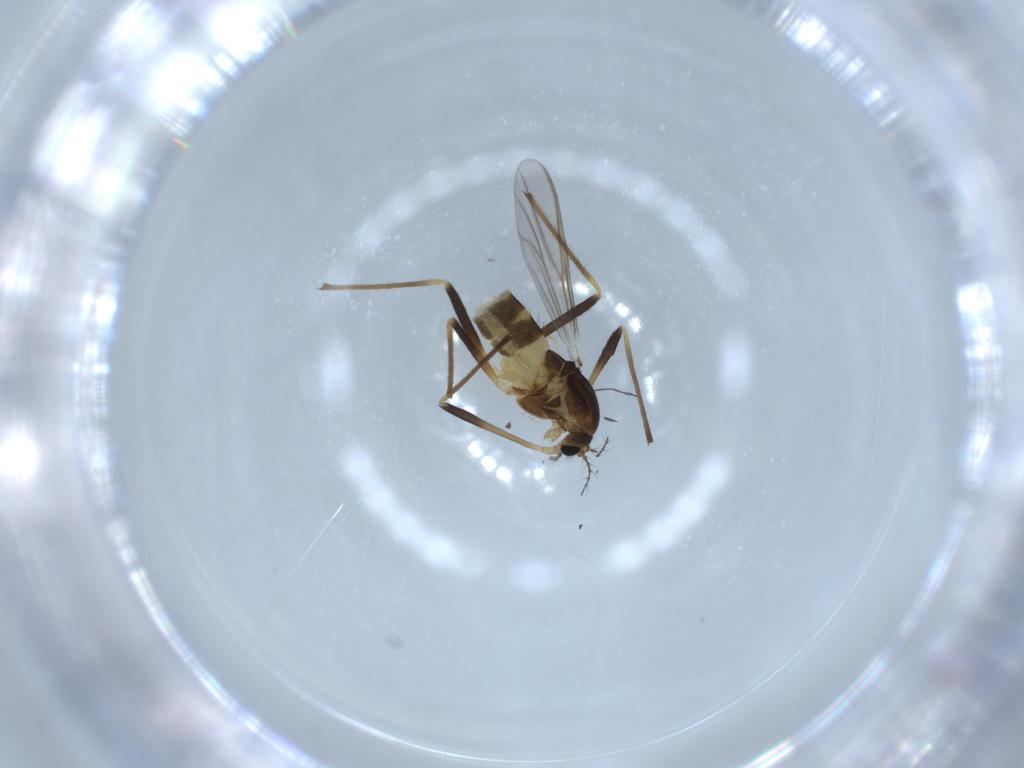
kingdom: Animalia
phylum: Arthropoda
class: Insecta
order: Diptera
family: Chironomidae
